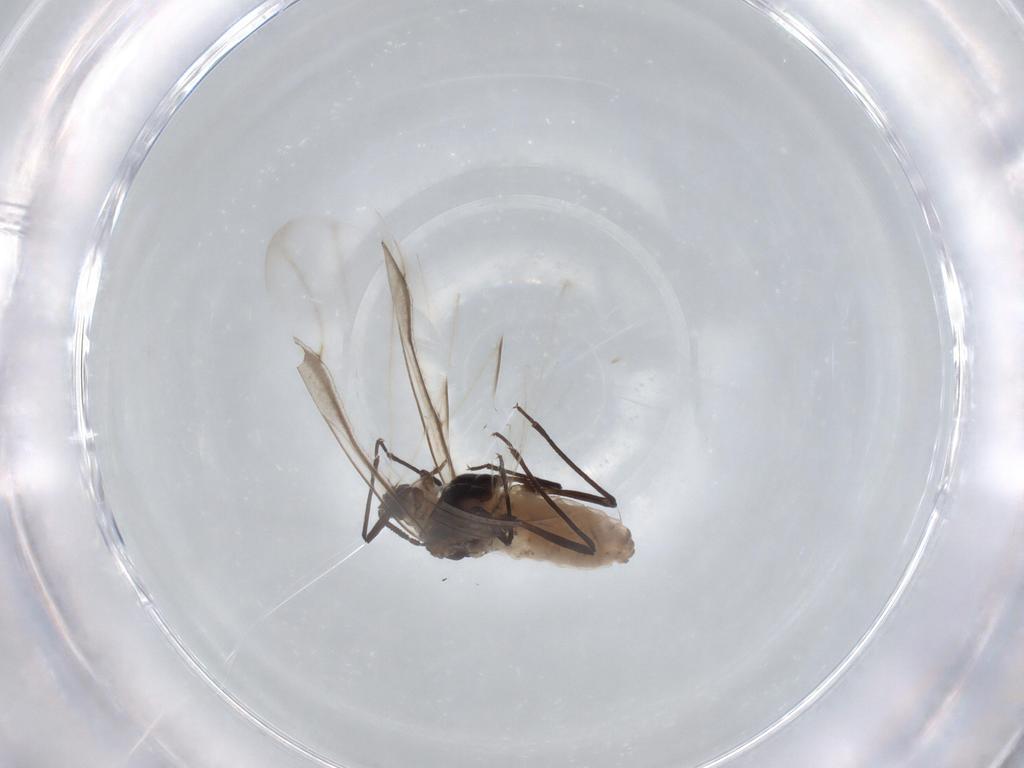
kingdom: Animalia
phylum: Arthropoda
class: Insecta
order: Hemiptera
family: Aphididae
